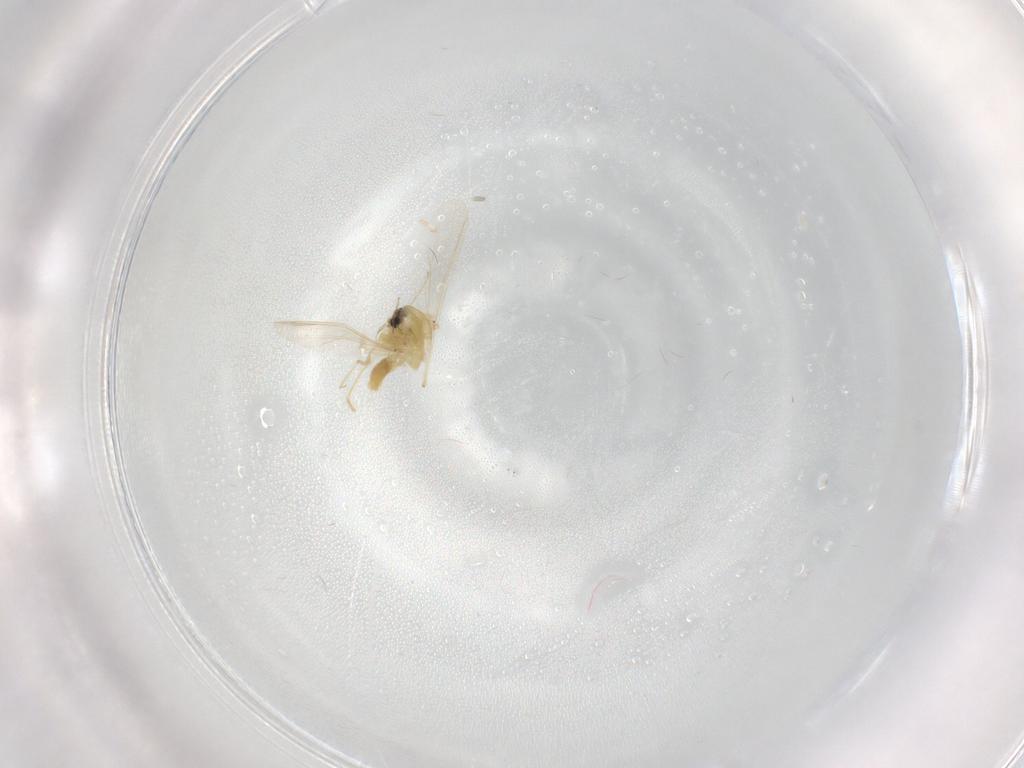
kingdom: Animalia
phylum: Arthropoda
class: Insecta
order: Diptera
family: Chironomidae
